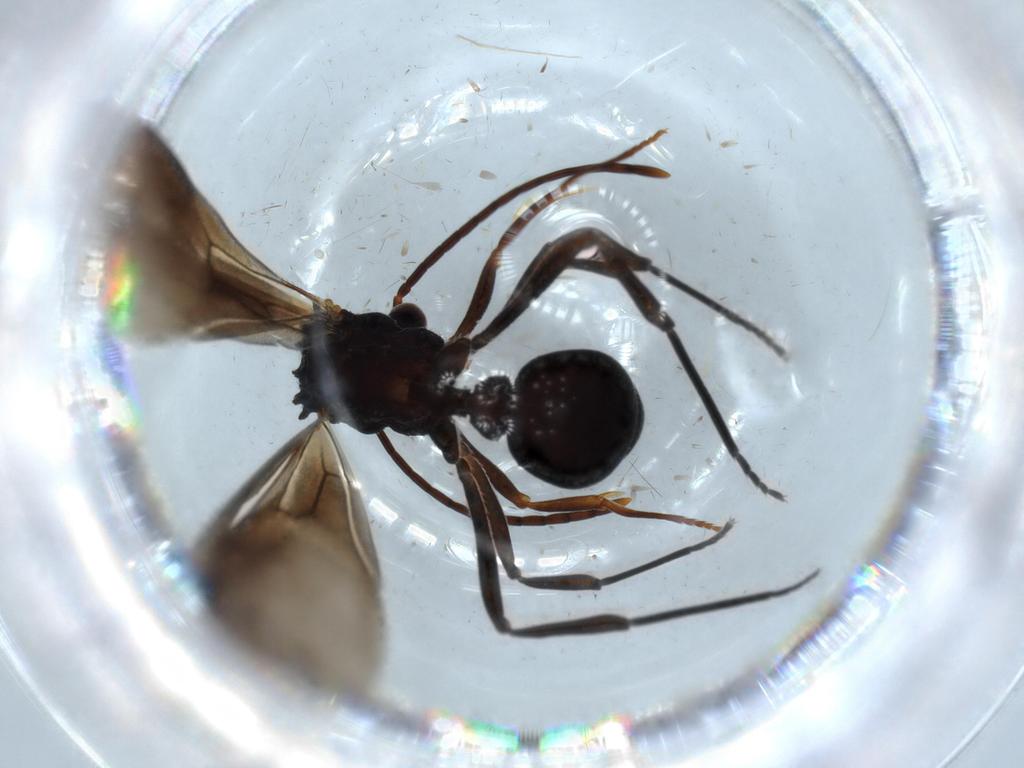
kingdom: Animalia
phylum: Arthropoda
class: Insecta
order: Hymenoptera
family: Formicidae
